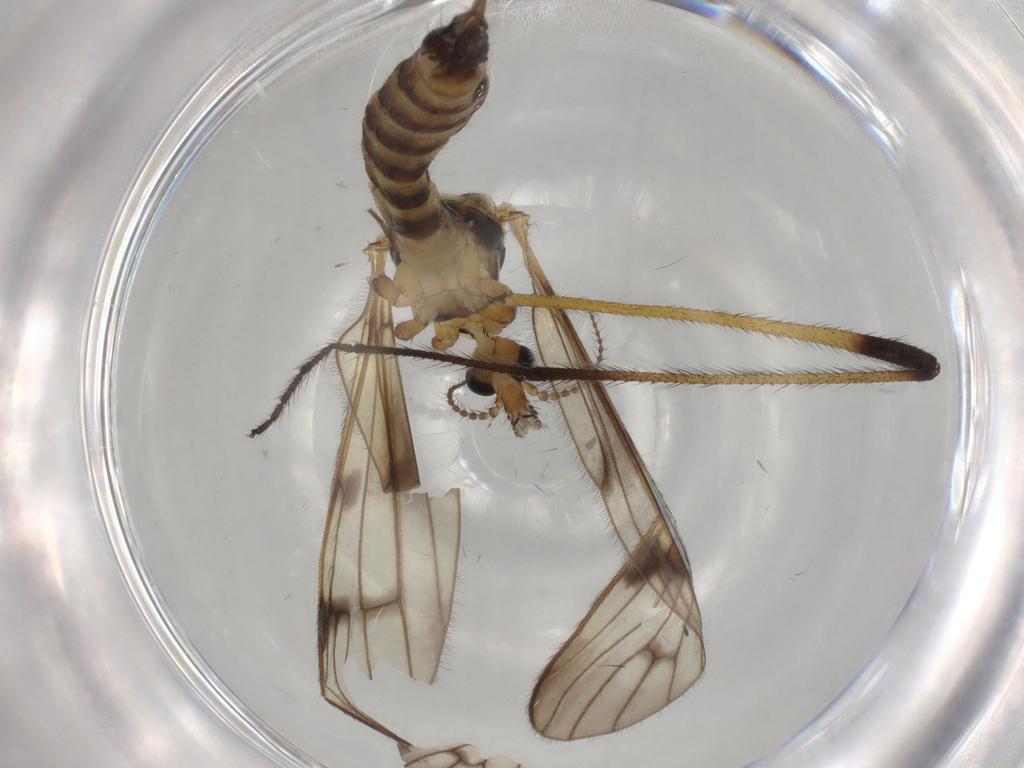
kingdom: Animalia
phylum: Arthropoda
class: Insecta
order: Diptera
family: Limoniidae
